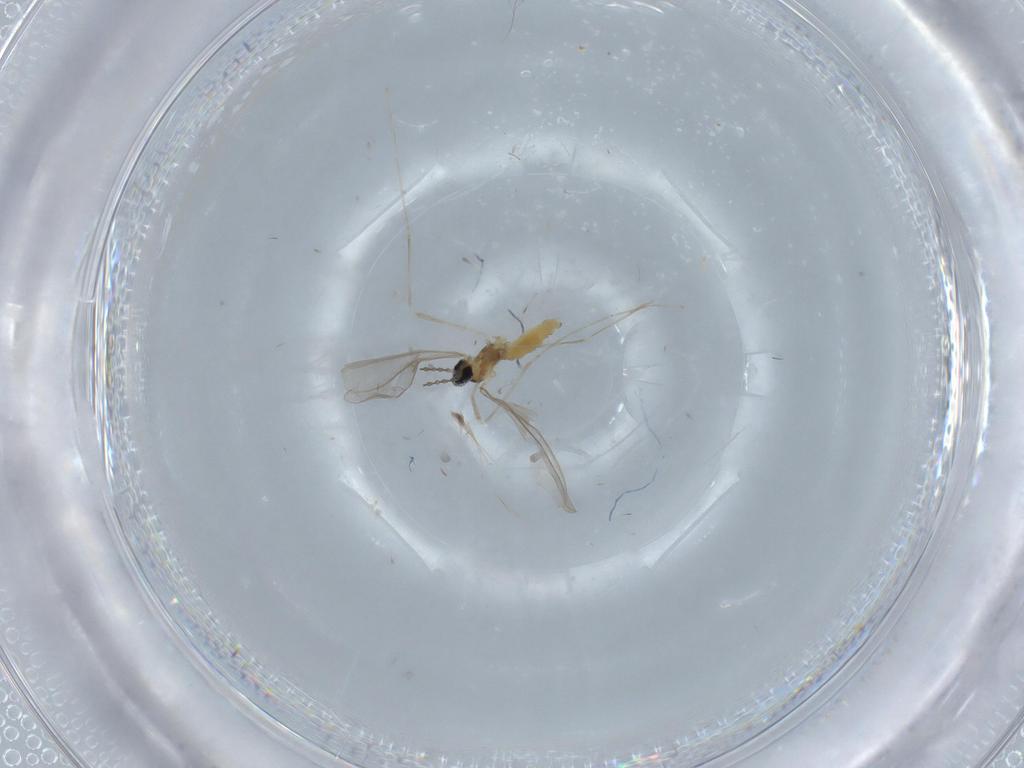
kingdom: Animalia
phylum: Arthropoda
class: Insecta
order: Diptera
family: Cecidomyiidae
